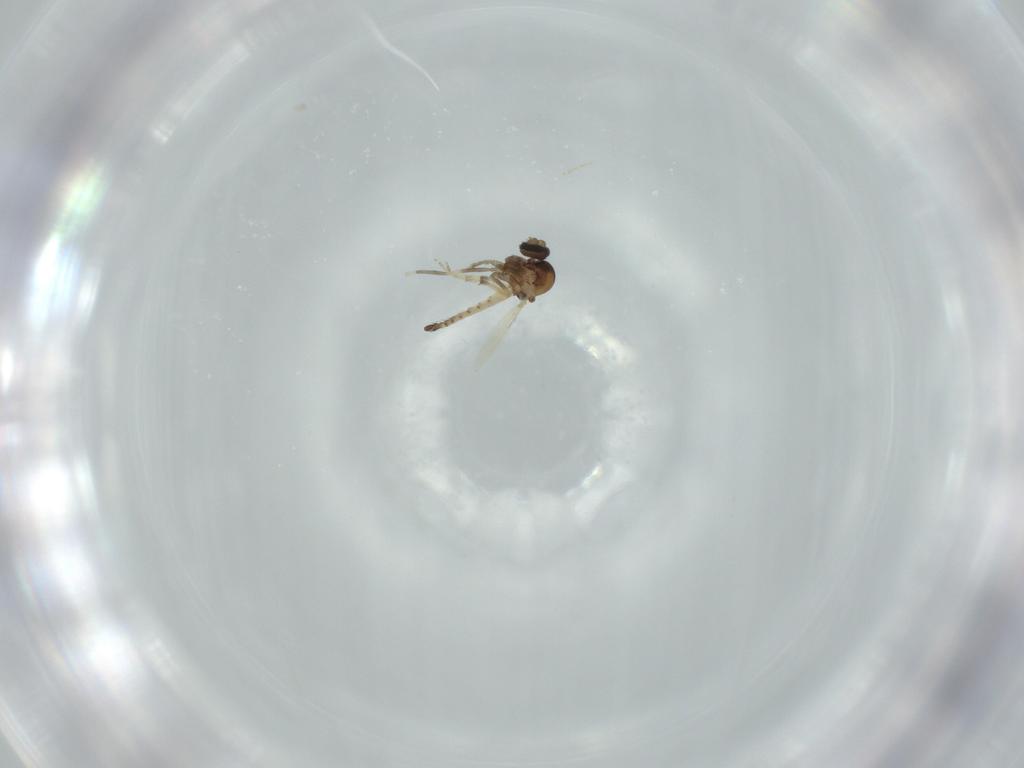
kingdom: Animalia
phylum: Arthropoda
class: Insecta
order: Diptera
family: Ceratopogonidae
